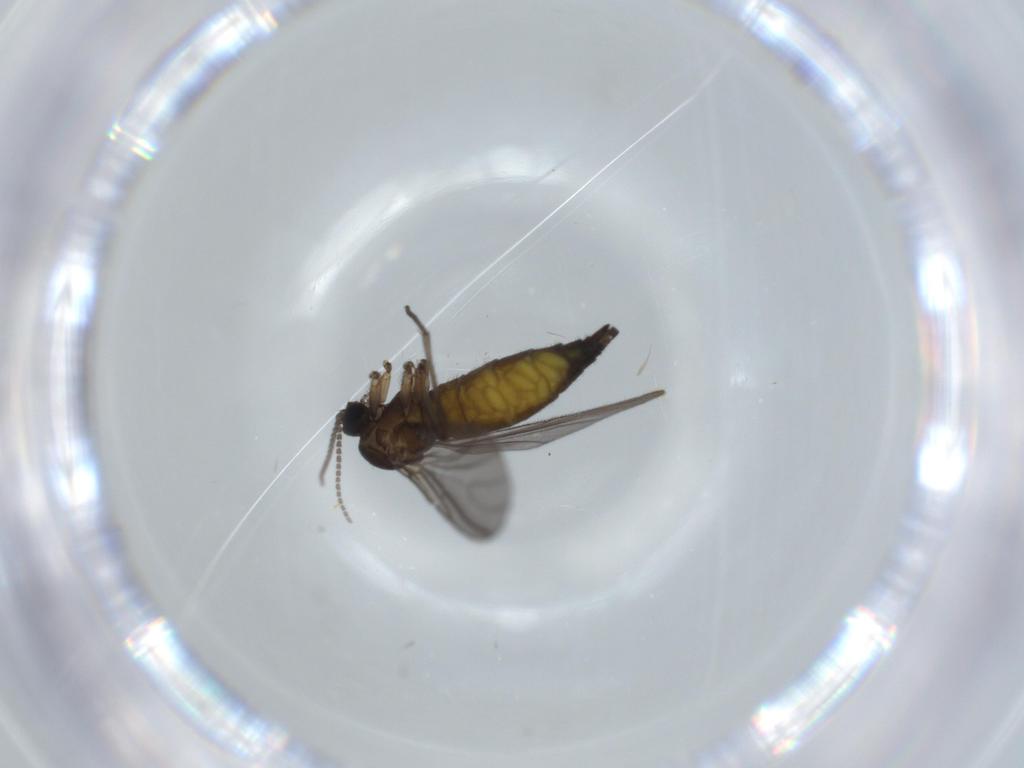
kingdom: Animalia
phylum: Arthropoda
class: Insecta
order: Diptera
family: Sciaridae
